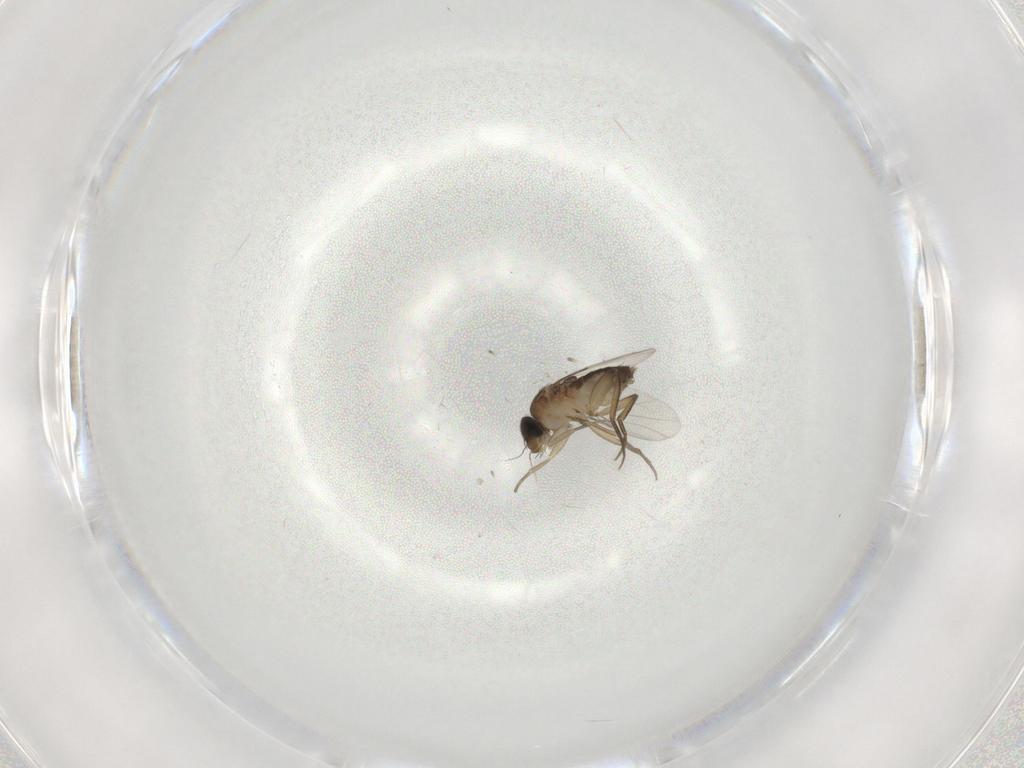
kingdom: Animalia
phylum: Arthropoda
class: Insecta
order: Diptera
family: Phoridae
